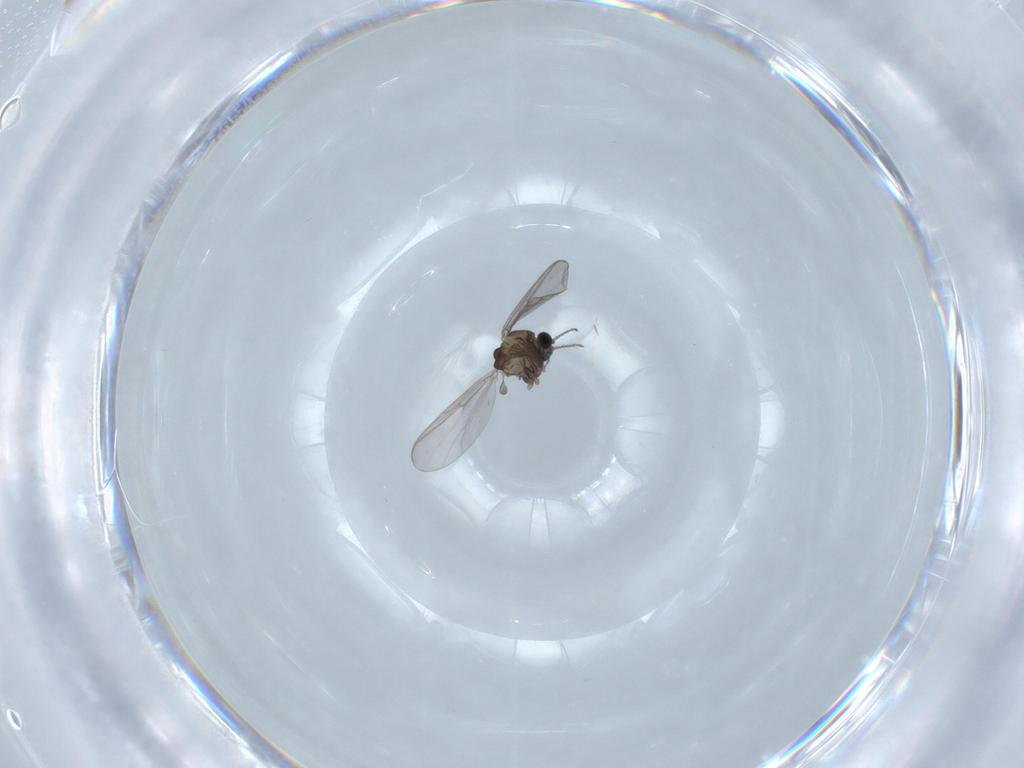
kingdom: Animalia
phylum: Arthropoda
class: Insecta
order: Diptera
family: Chironomidae
